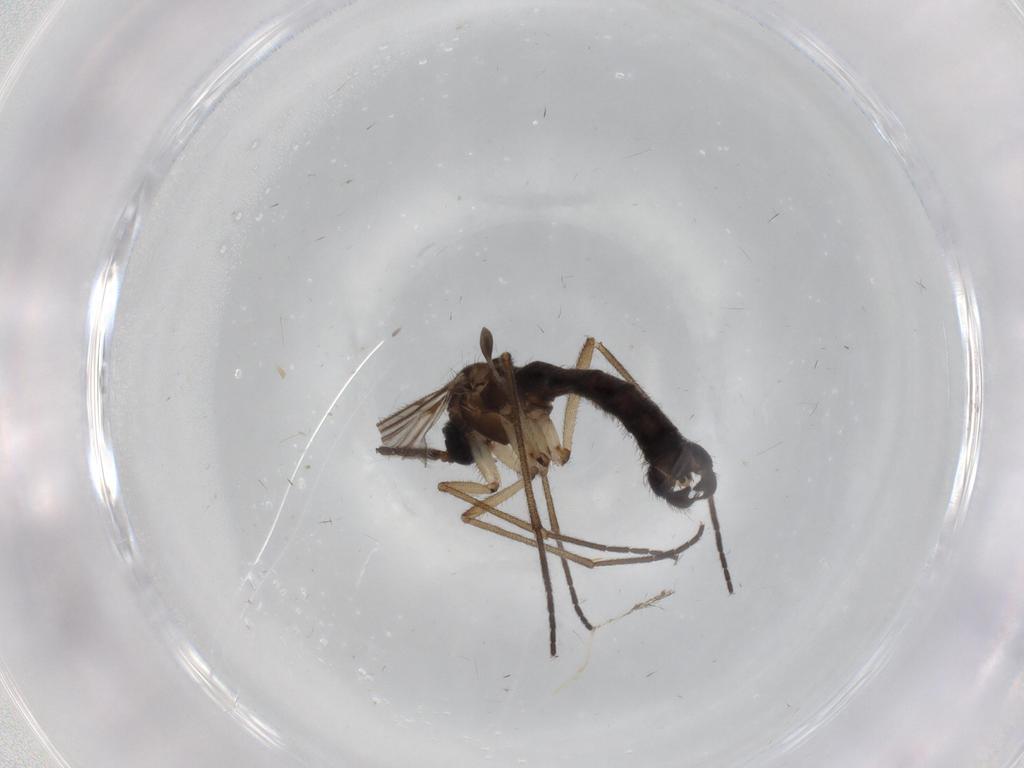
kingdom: Animalia
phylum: Arthropoda
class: Insecta
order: Diptera
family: Sciaridae
